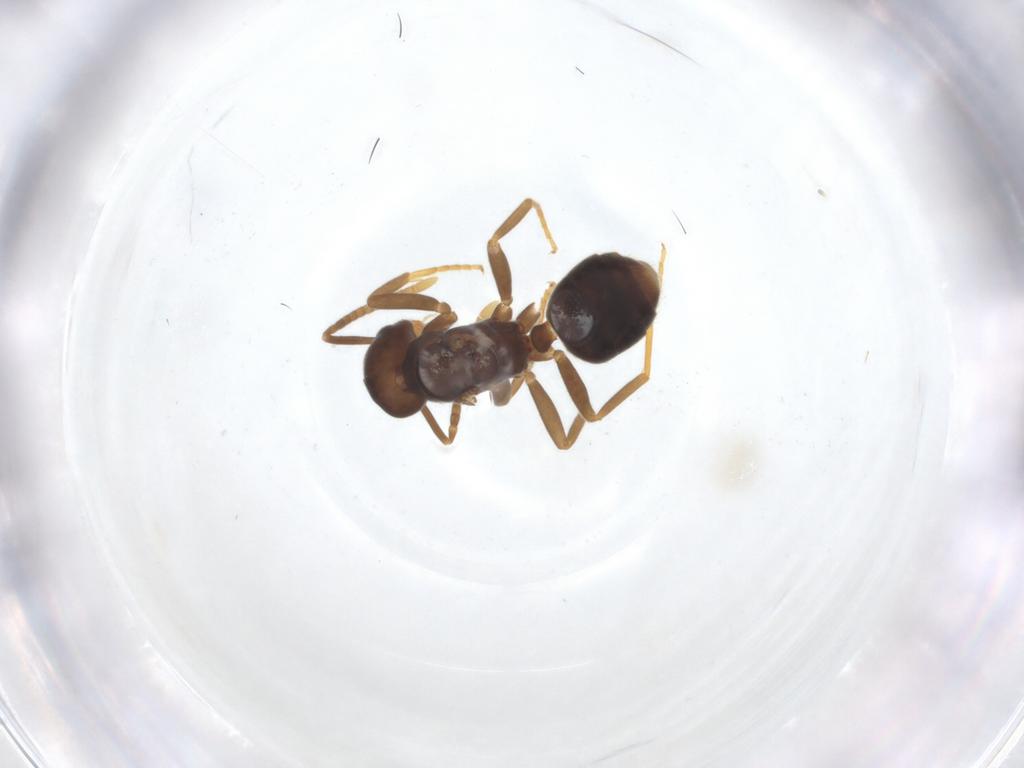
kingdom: Animalia
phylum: Arthropoda
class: Insecta
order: Hymenoptera
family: Formicidae
